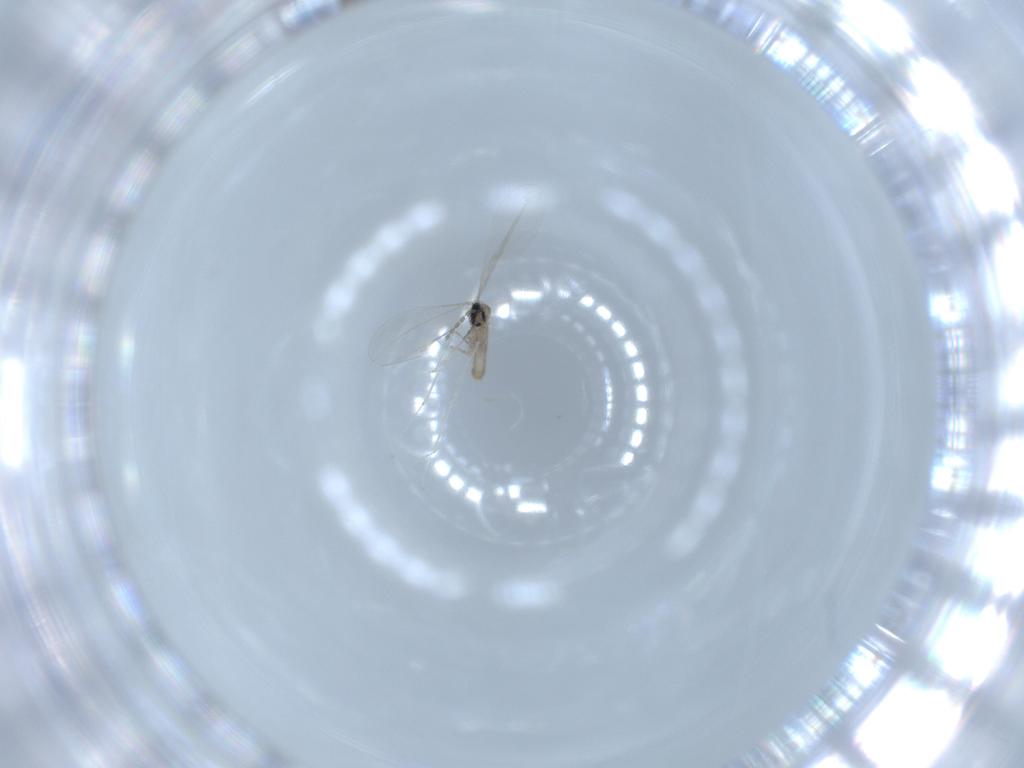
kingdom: Animalia
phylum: Arthropoda
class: Insecta
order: Diptera
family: Cecidomyiidae
